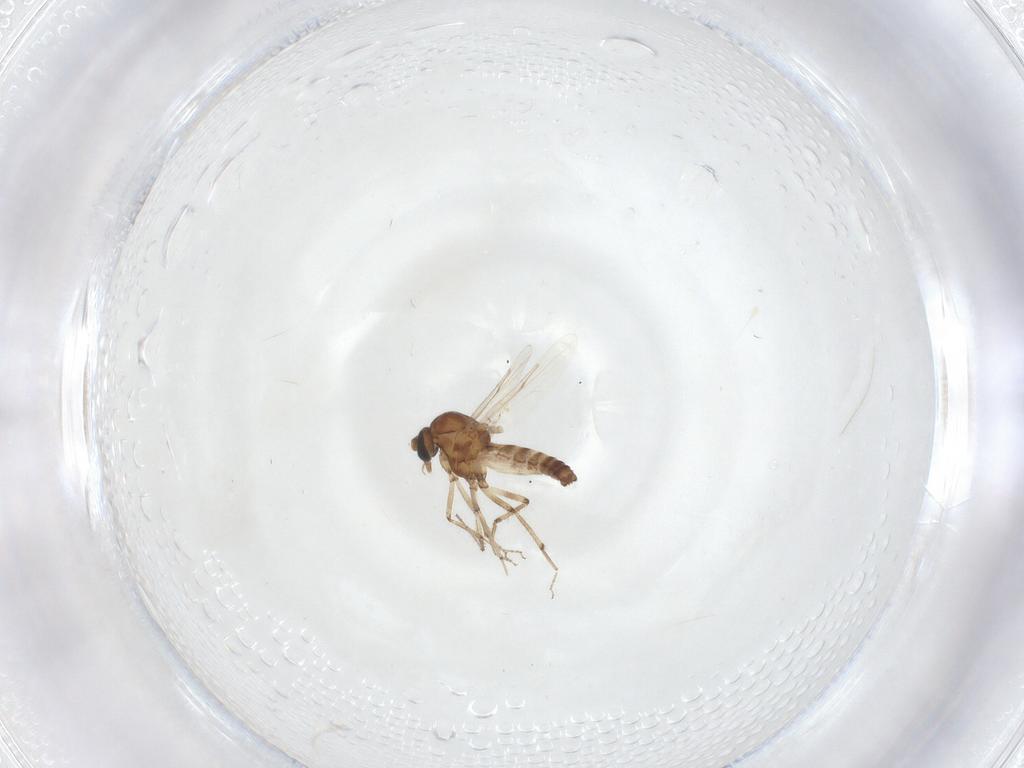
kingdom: Animalia
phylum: Arthropoda
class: Insecta
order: Diptera
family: Ceratopogonidae
